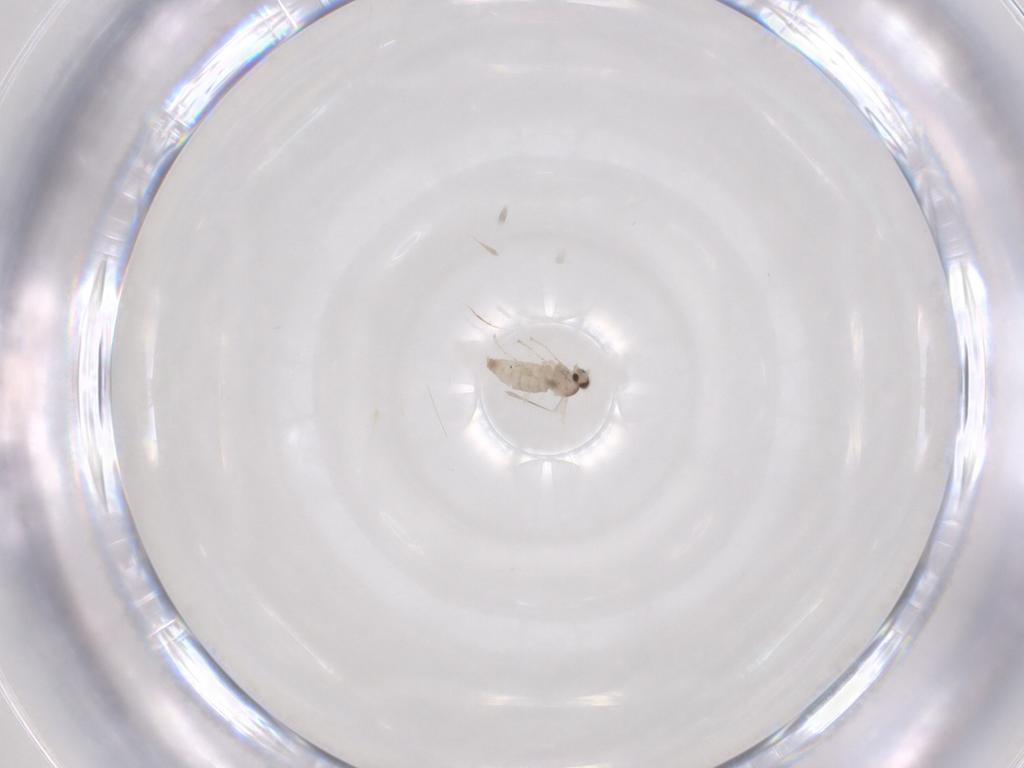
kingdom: Animalia
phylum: Arthropoda
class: Insecta
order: Diptera
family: Cecidomyiidae
